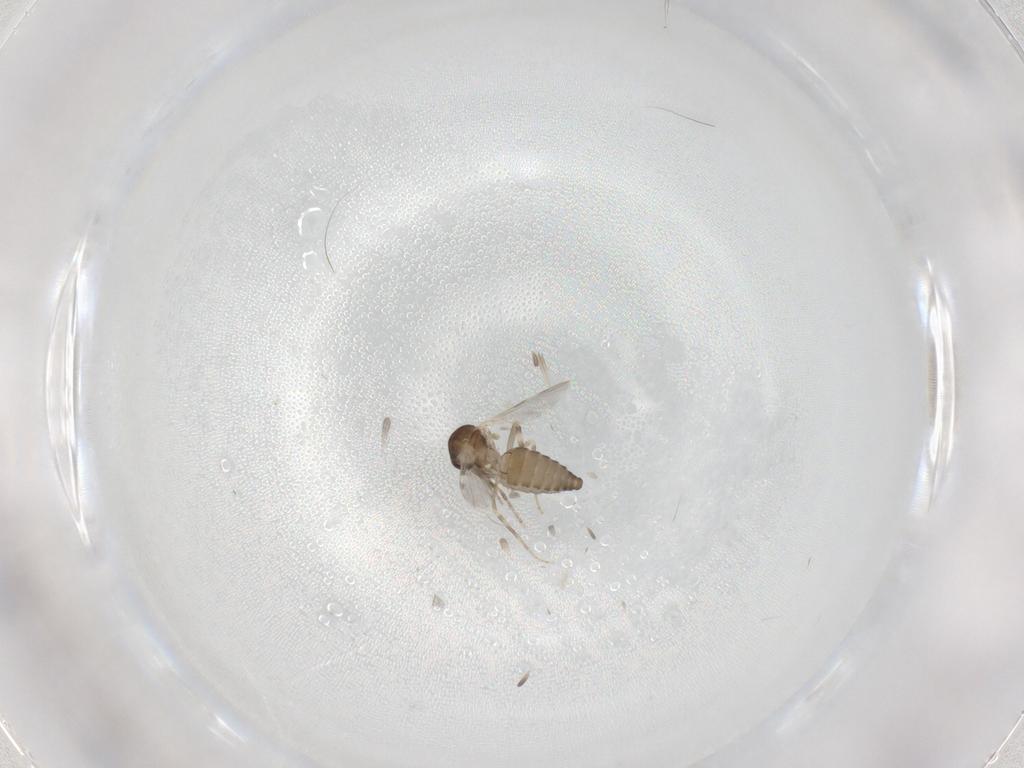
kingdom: Animalia
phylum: Arthropoda
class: Insecta
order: Diptera
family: Ceratopogonidae
